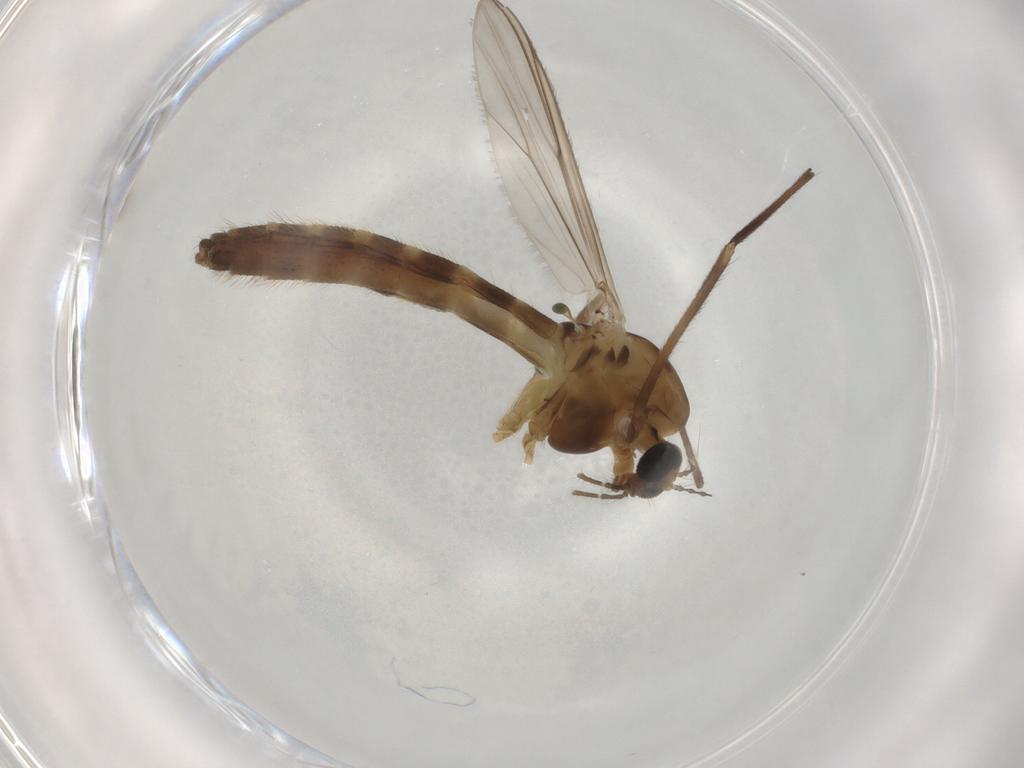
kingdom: Animalia
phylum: Arthropoda
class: Insecta
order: Diptera
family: Chironomidae
